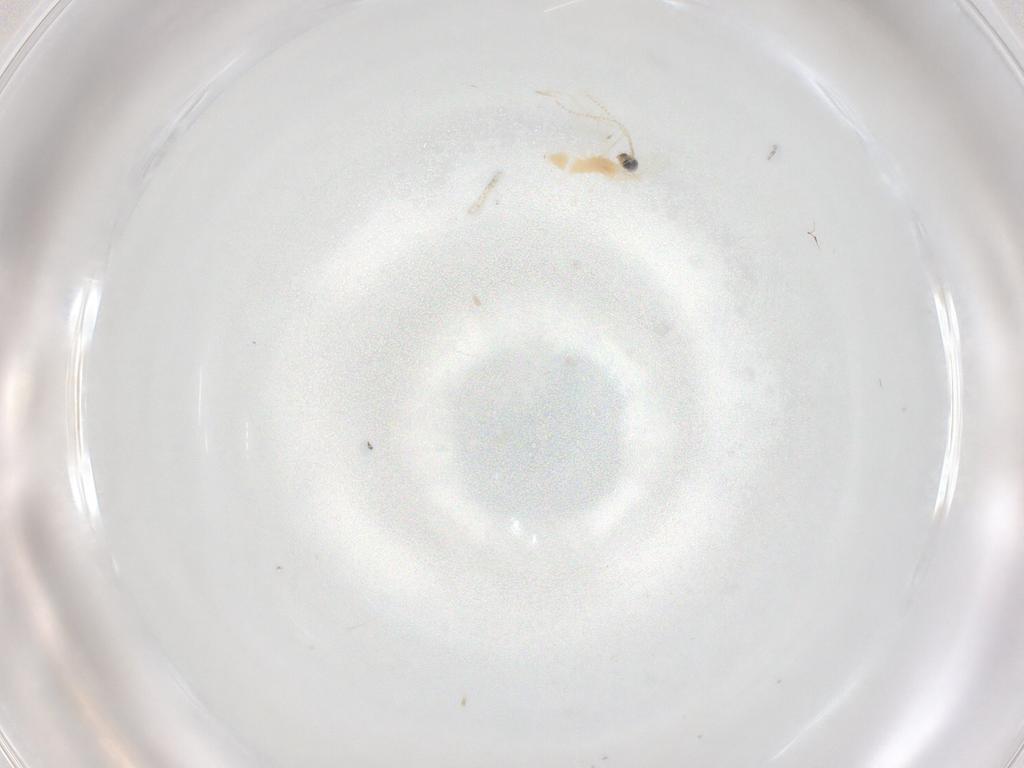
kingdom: Animalia
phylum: Arthropoda
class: Insecta
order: Diptera
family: Cecidomyiidae
